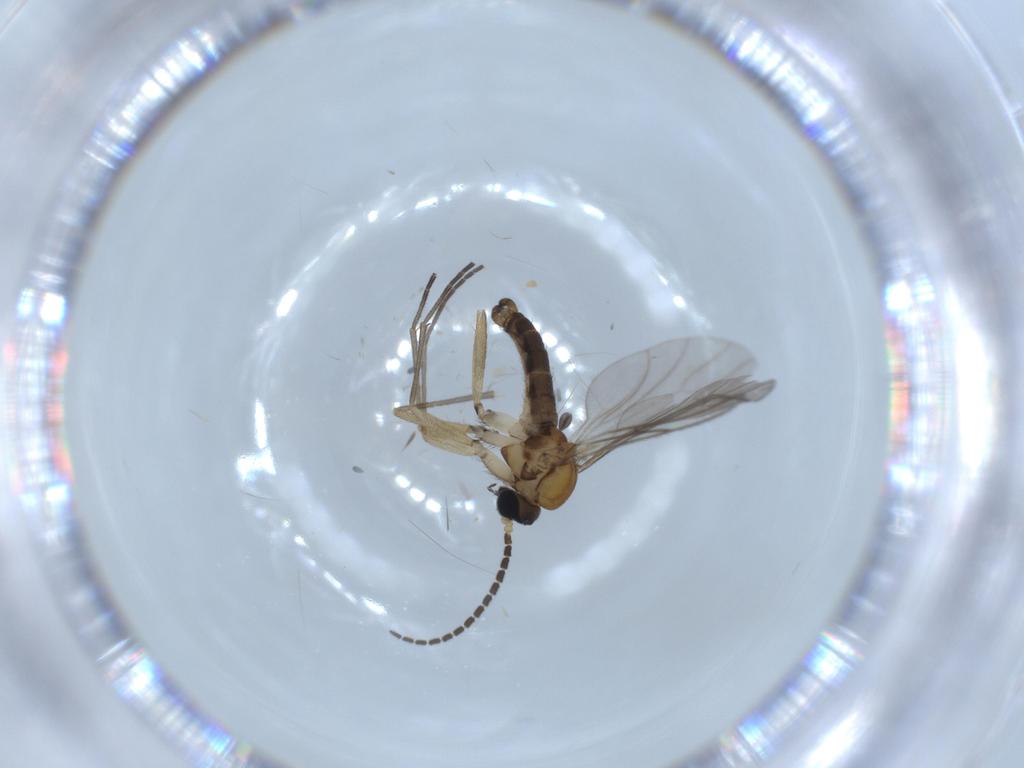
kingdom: Animalia
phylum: Arthropoda
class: Insecta
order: Diptera
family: Sciaridae
